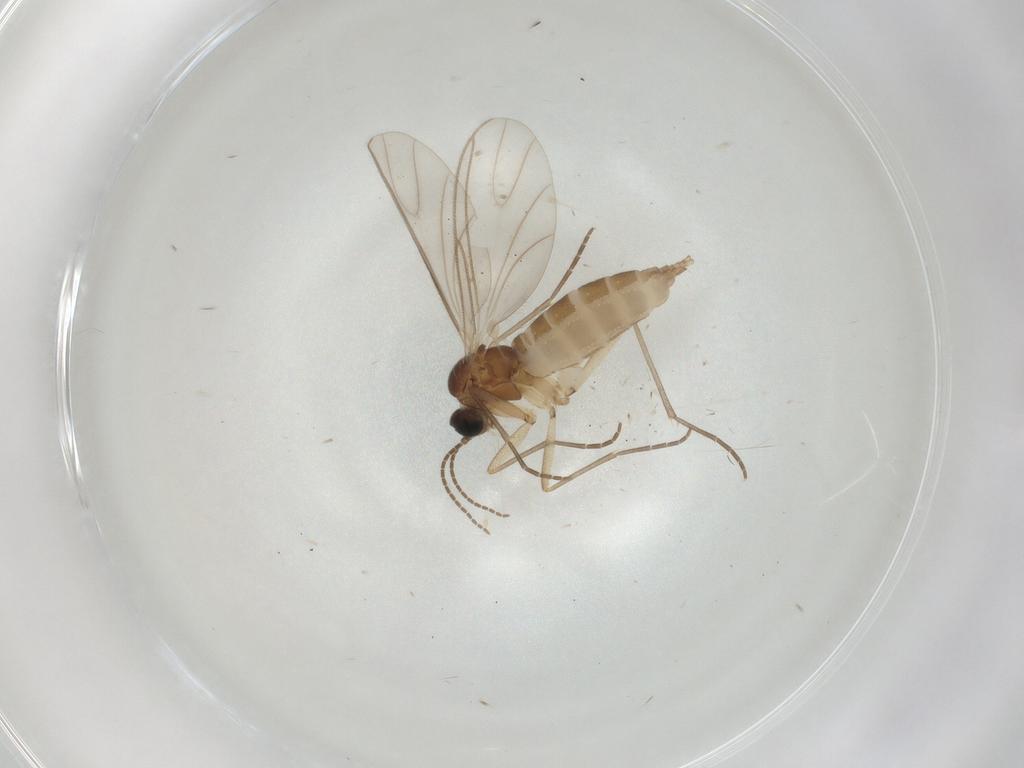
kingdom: Animalia
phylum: Arthropoda
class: Insecta
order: Diptera
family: Sciaridae
